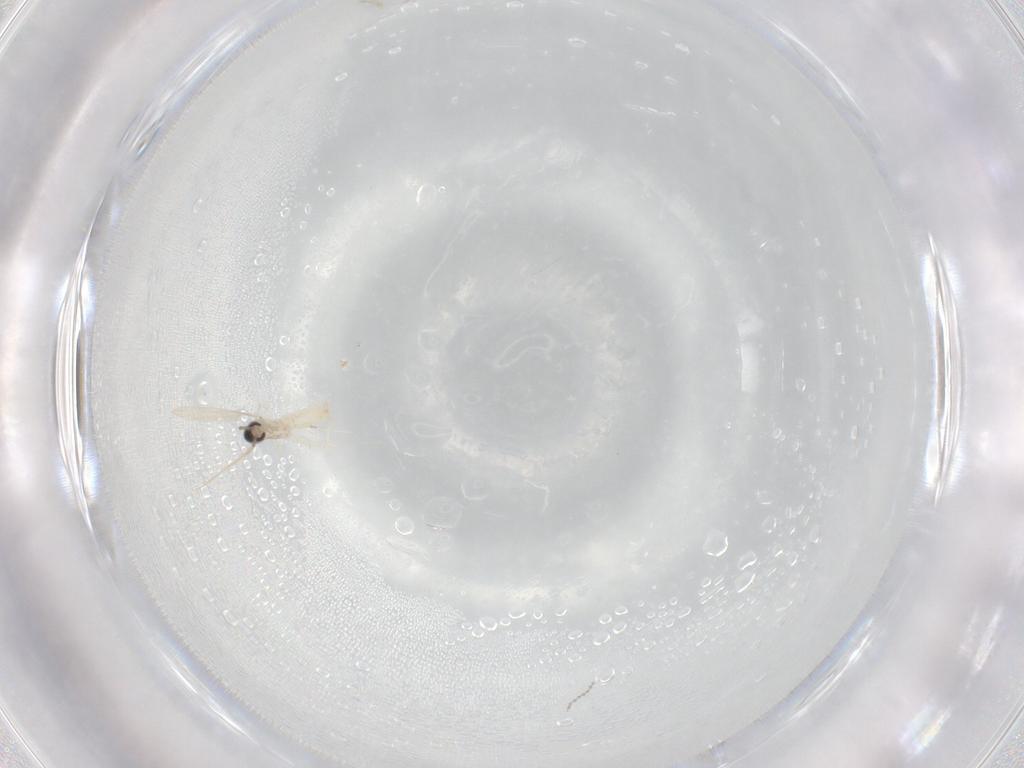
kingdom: Animalia
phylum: Arthropoda
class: Insecta
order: Diptera
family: Cecidomyiidae
